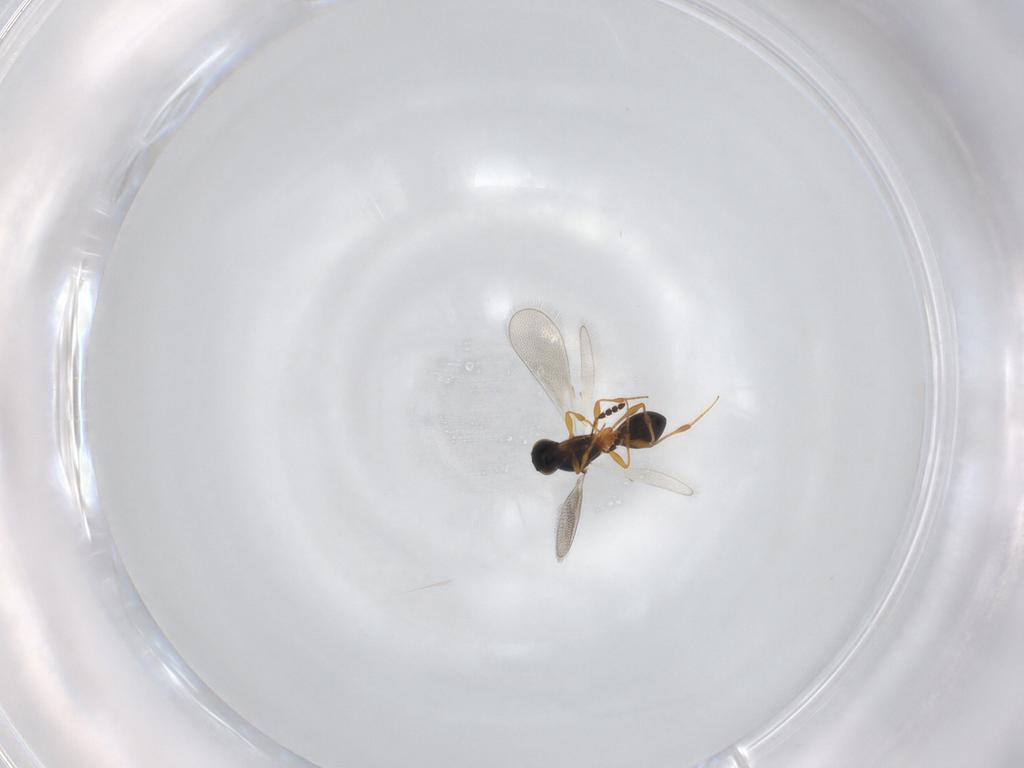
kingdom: Animalia
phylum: Arthropoda
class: Insecta
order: Hymenoptera
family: Platygastridae
